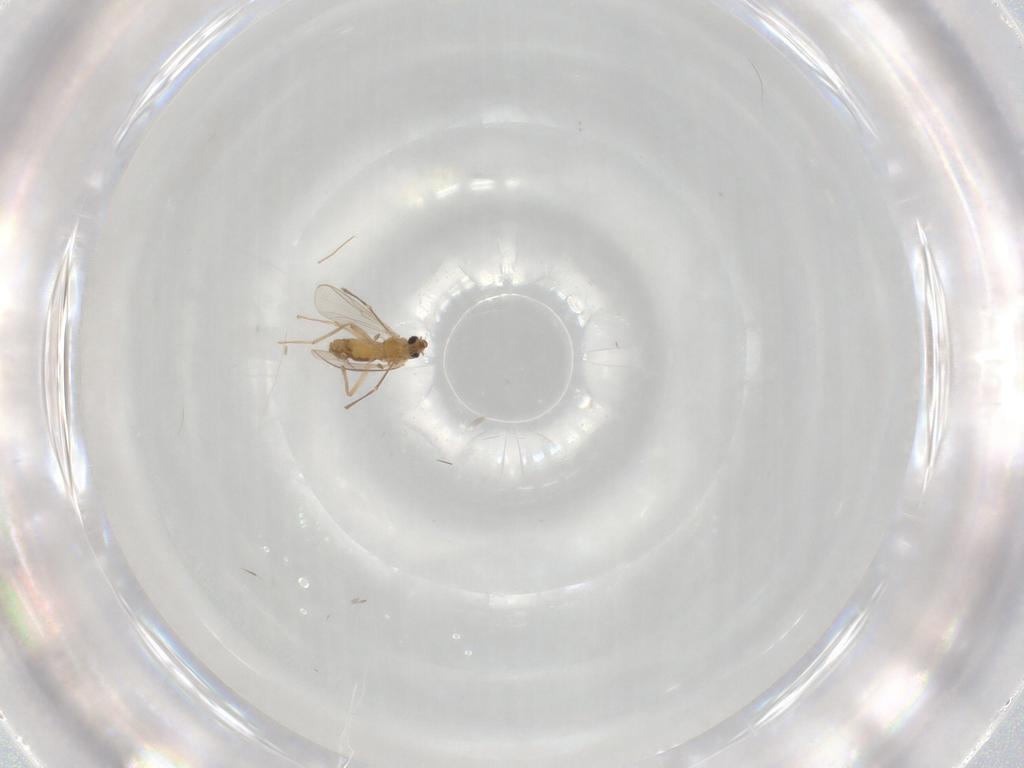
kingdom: Animalia
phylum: Arthropoda
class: Insecta
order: Diptera
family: Chironomidae
